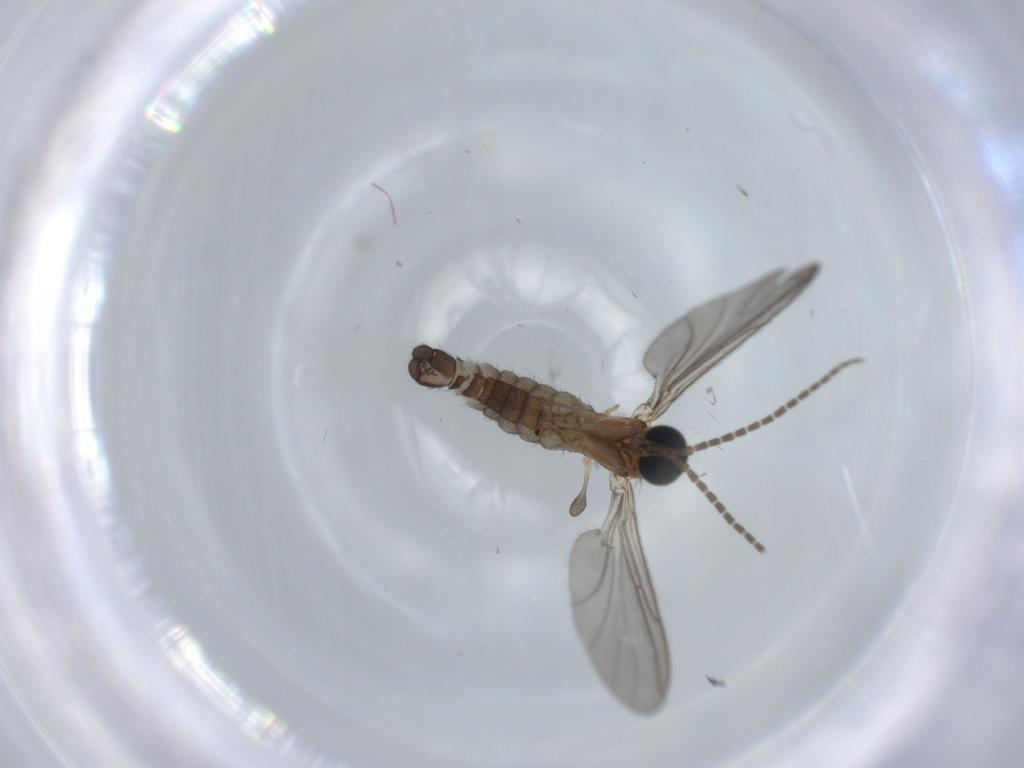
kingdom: Animalia
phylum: Arthropoda
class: Insecta
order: Diptera
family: Sciaridae
